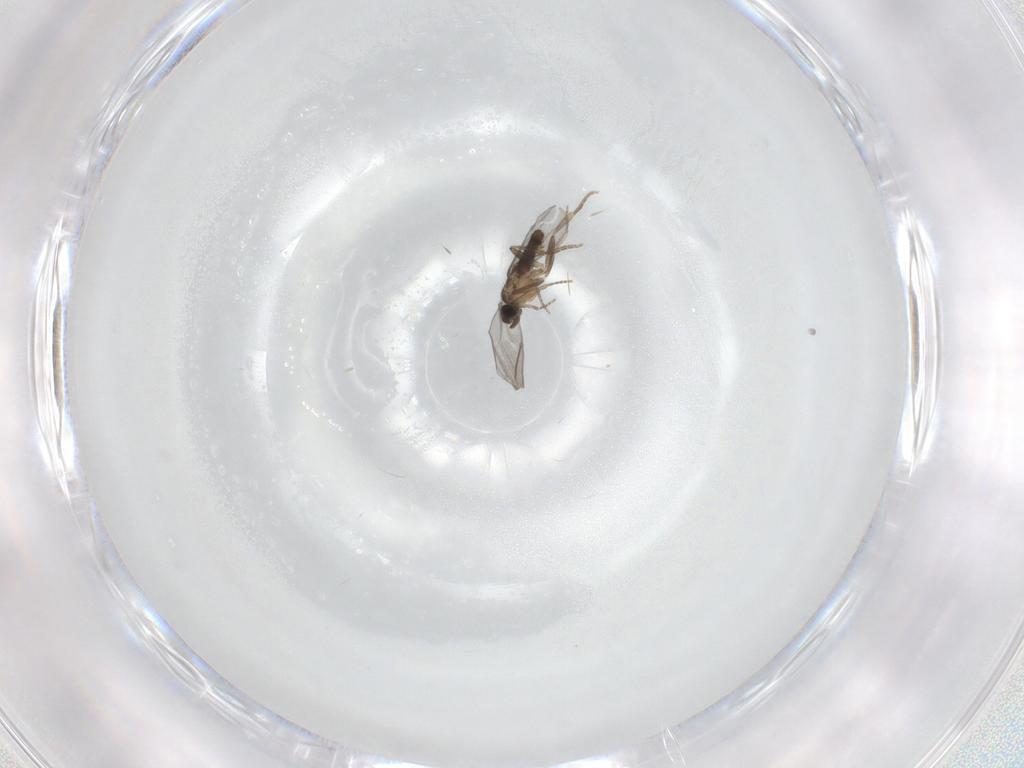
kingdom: Animalia
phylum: Arthropoda
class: Insecta
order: Diptera
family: Tabanidae
